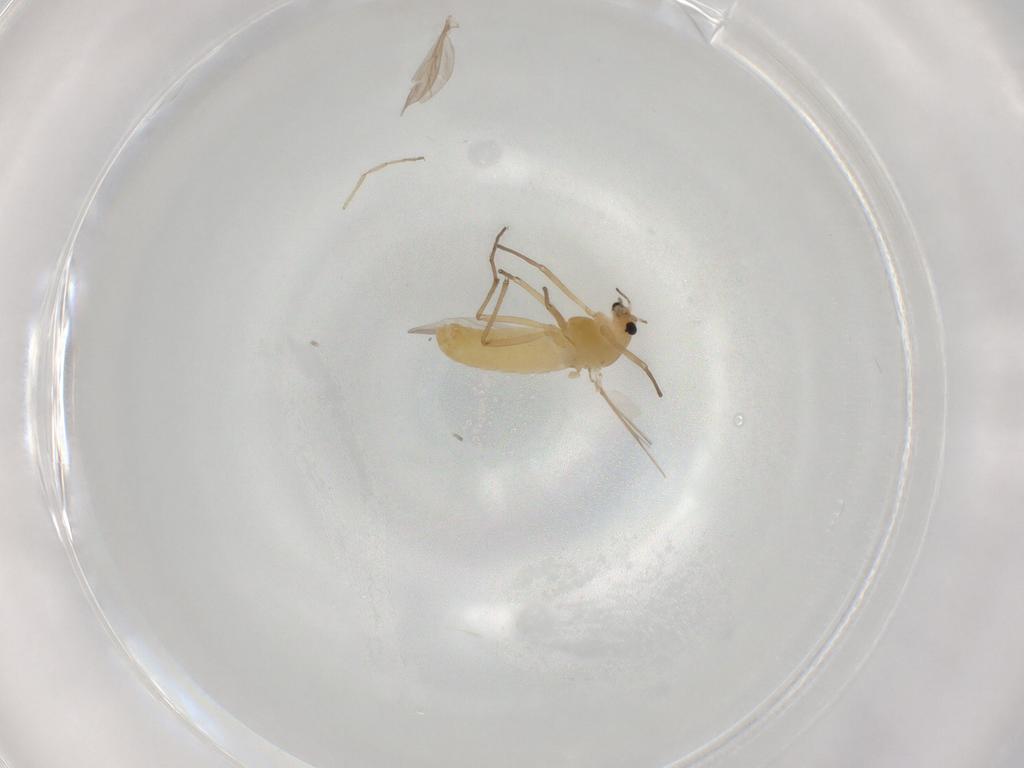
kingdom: Animalia
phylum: Arthropoda
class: Insecta
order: Diptera
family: Chironomidae
